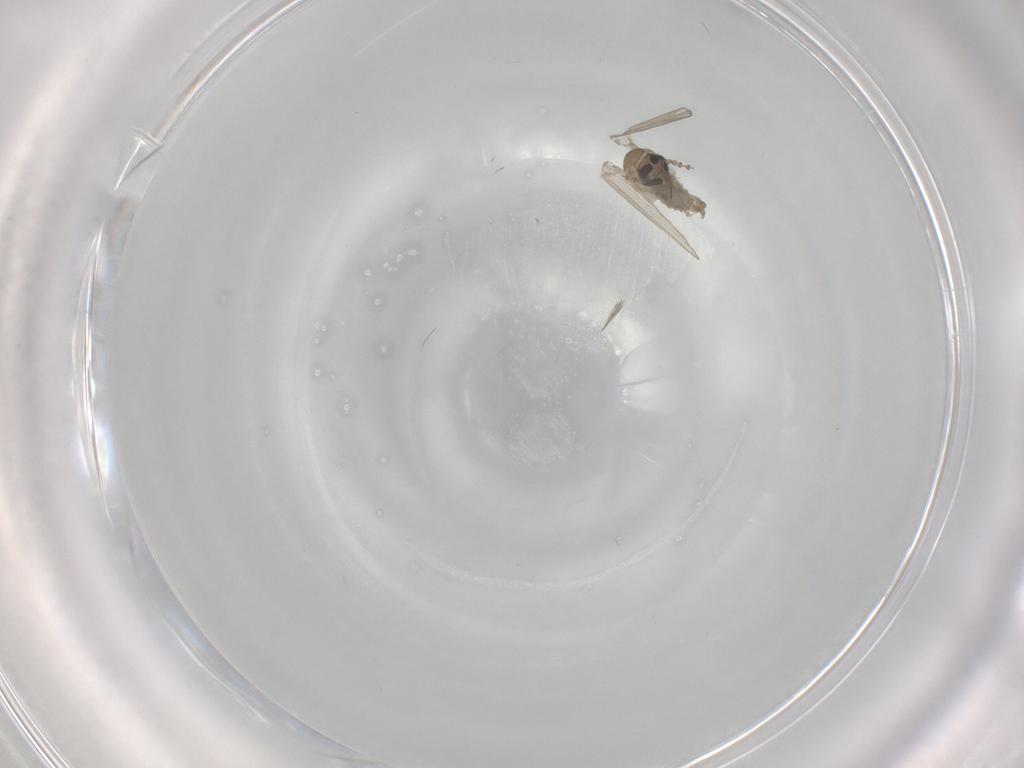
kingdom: Animalia
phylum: Arthropoda
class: Insecta
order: Diptera
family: Psychodidae
